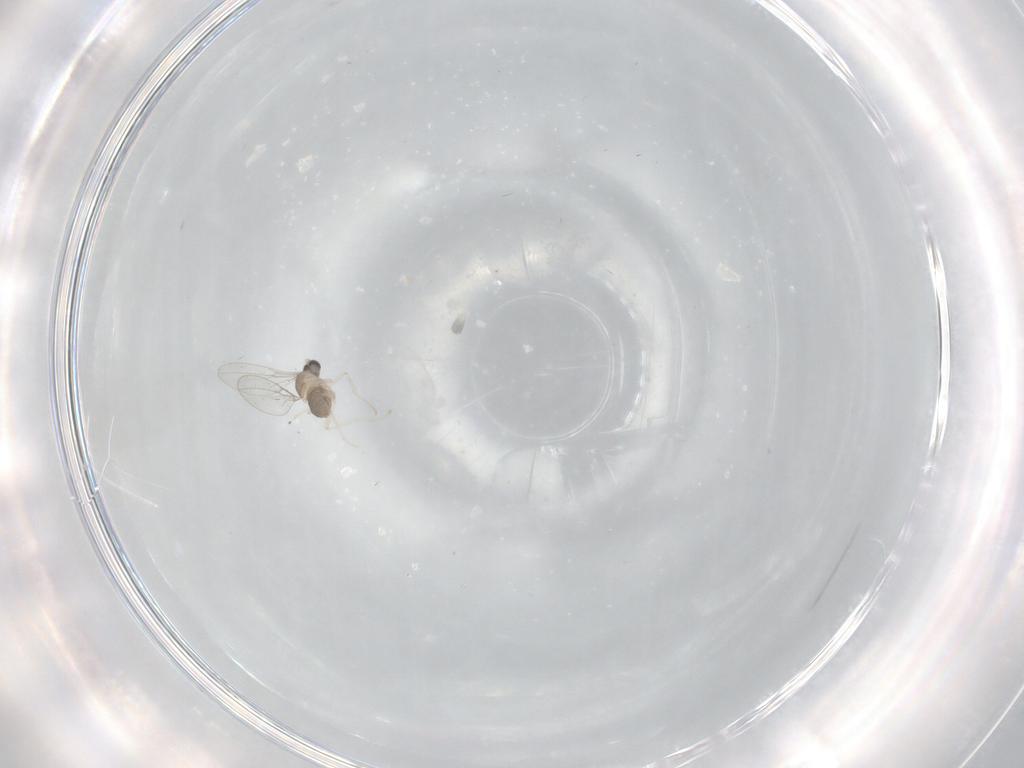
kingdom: Animalia
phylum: Arthropoda
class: Insecta
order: Diptera
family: Cecidomyiidae
